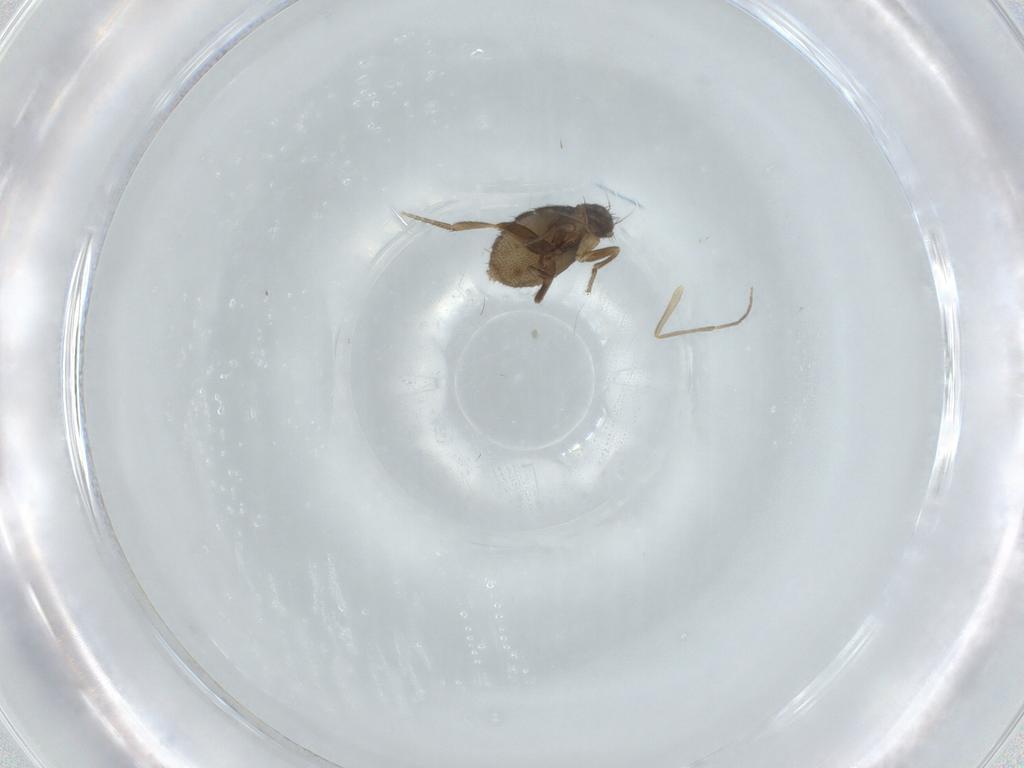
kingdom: Animalia
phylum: Arthropoda
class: Insecta
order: Diptera
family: Phoridae
